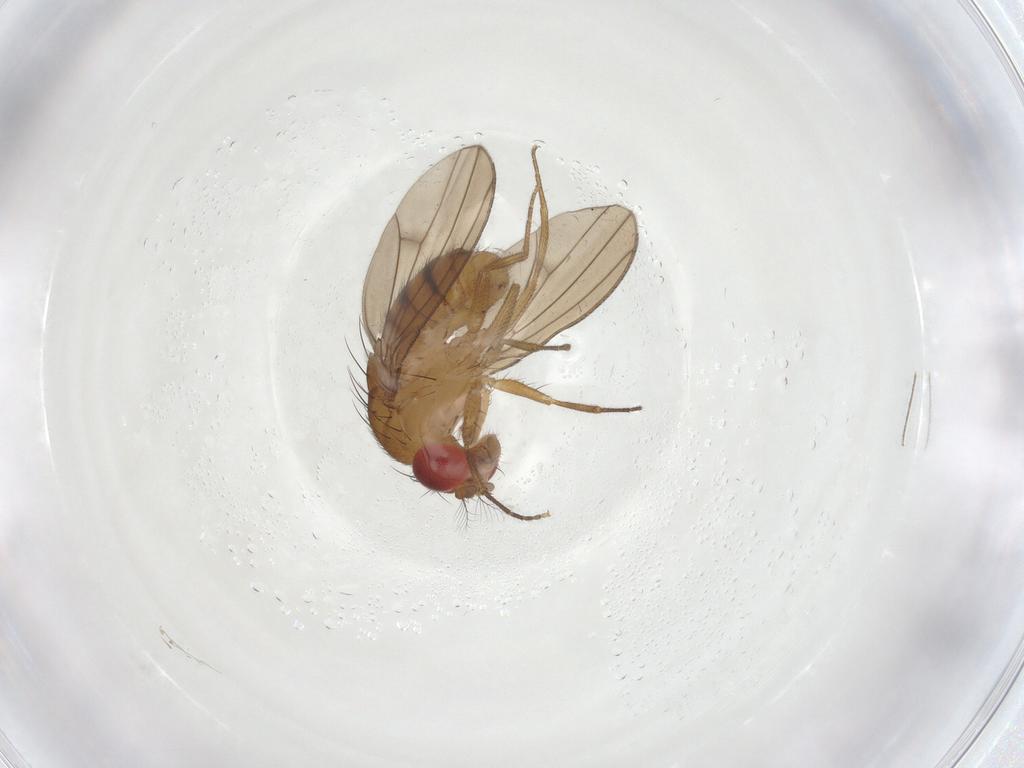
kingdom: Animalia
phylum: Arthropoda
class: Insecta
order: Diptera
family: Drosophilidae
